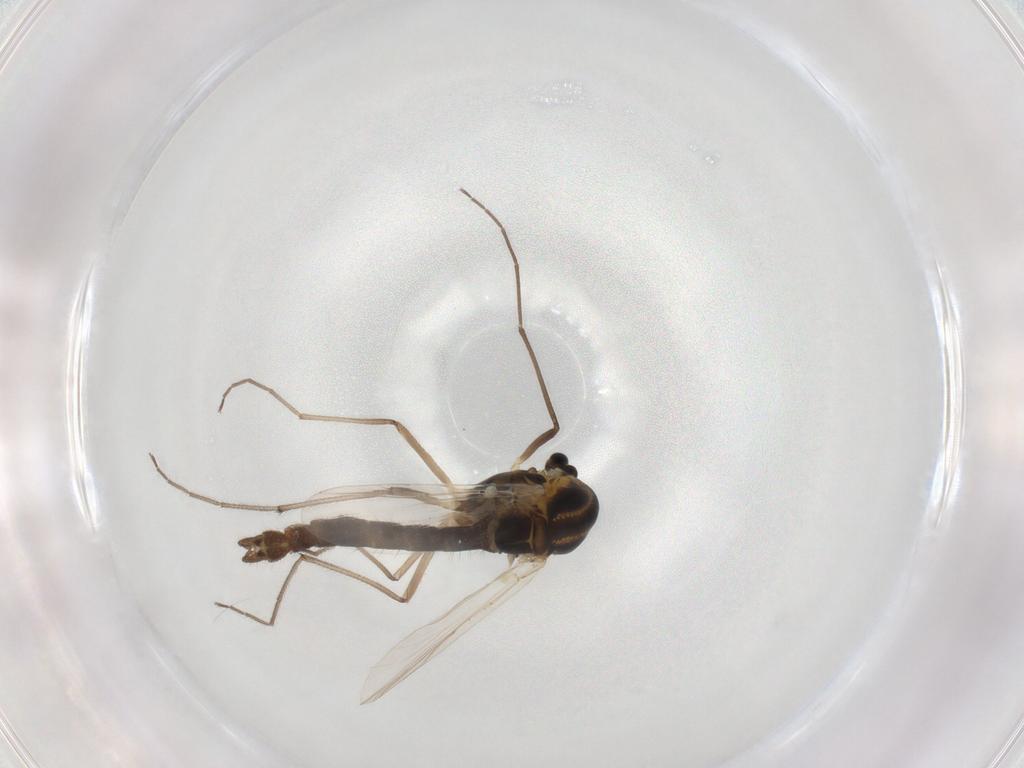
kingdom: Animalia
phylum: Arthropoda
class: Insecta
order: Diptera
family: Chironomidae
